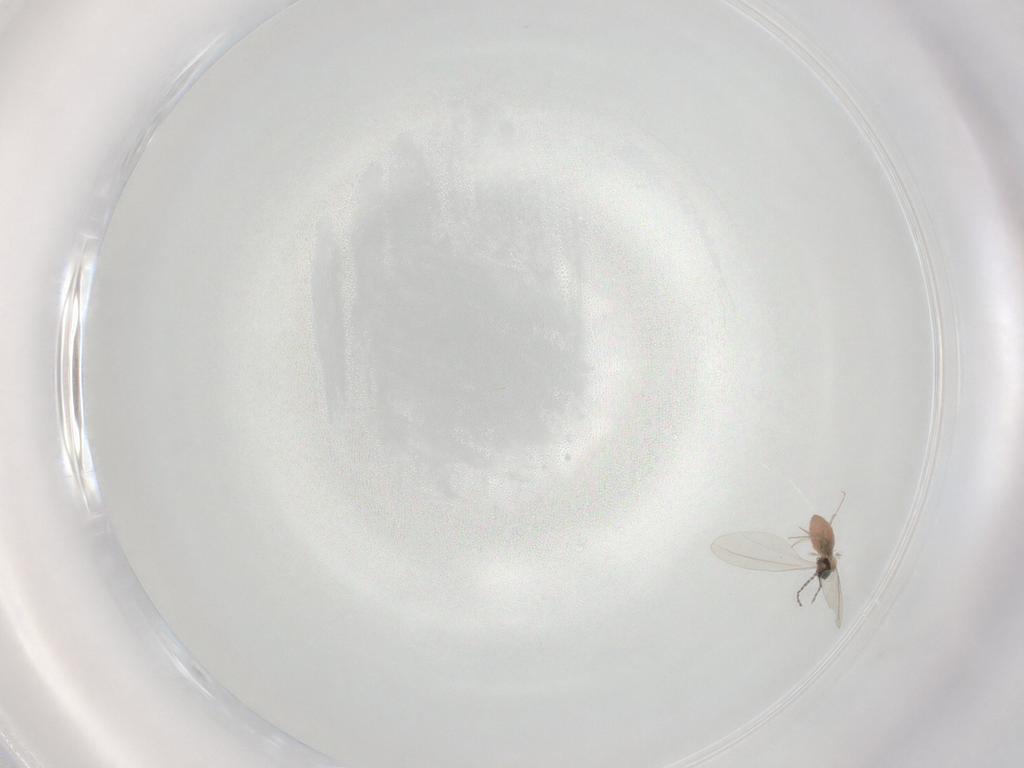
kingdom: Animalia
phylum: Arthropoda
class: Insecta
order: Diptera
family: Cecidomyiidae
